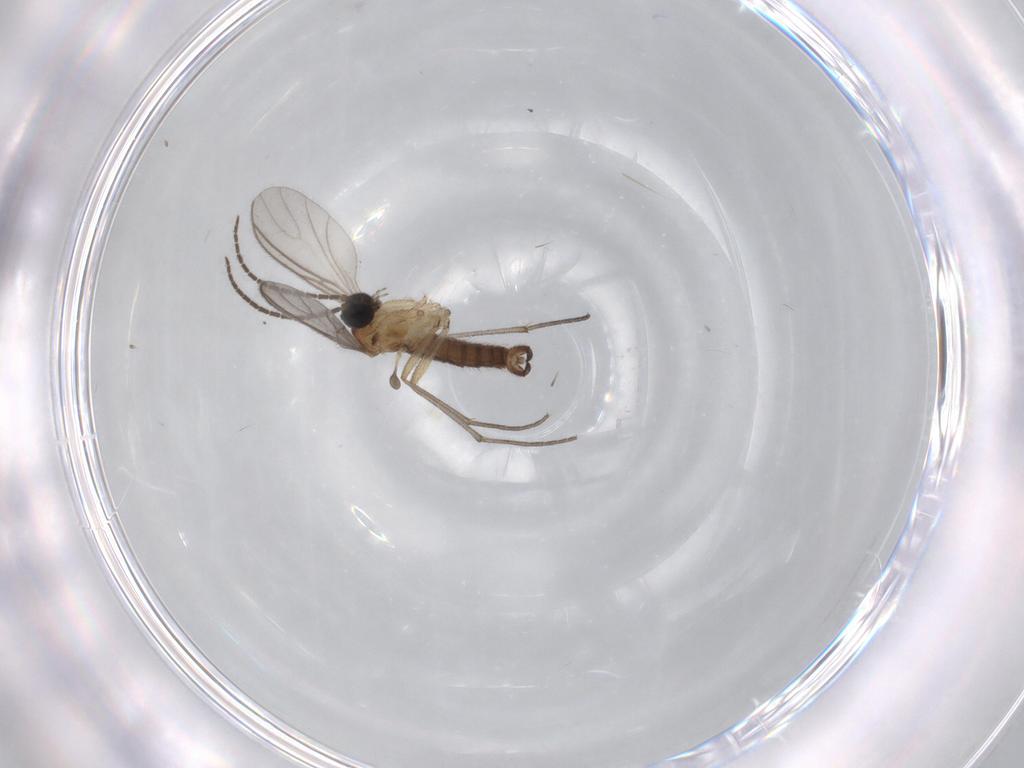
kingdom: Animalia
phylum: Arthropoda
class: Insecta
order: Diptera
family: Sciaridae
